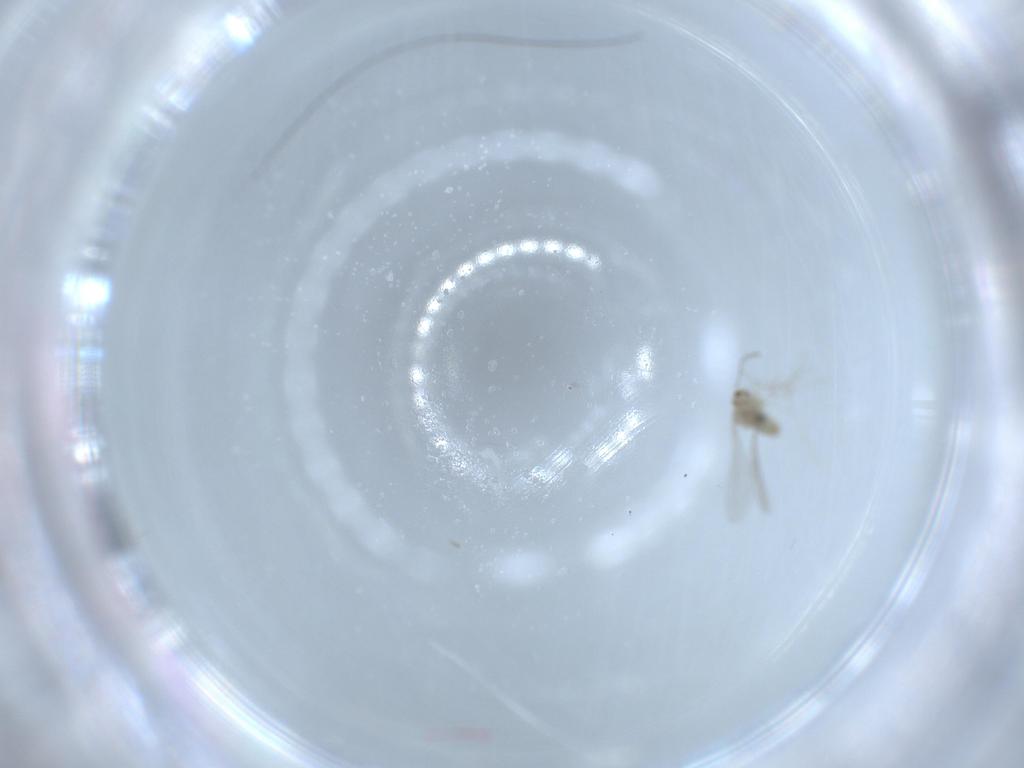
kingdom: Animalia
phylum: Arthropoda
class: Insecta
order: Diptera
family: Cecidomyiidae
